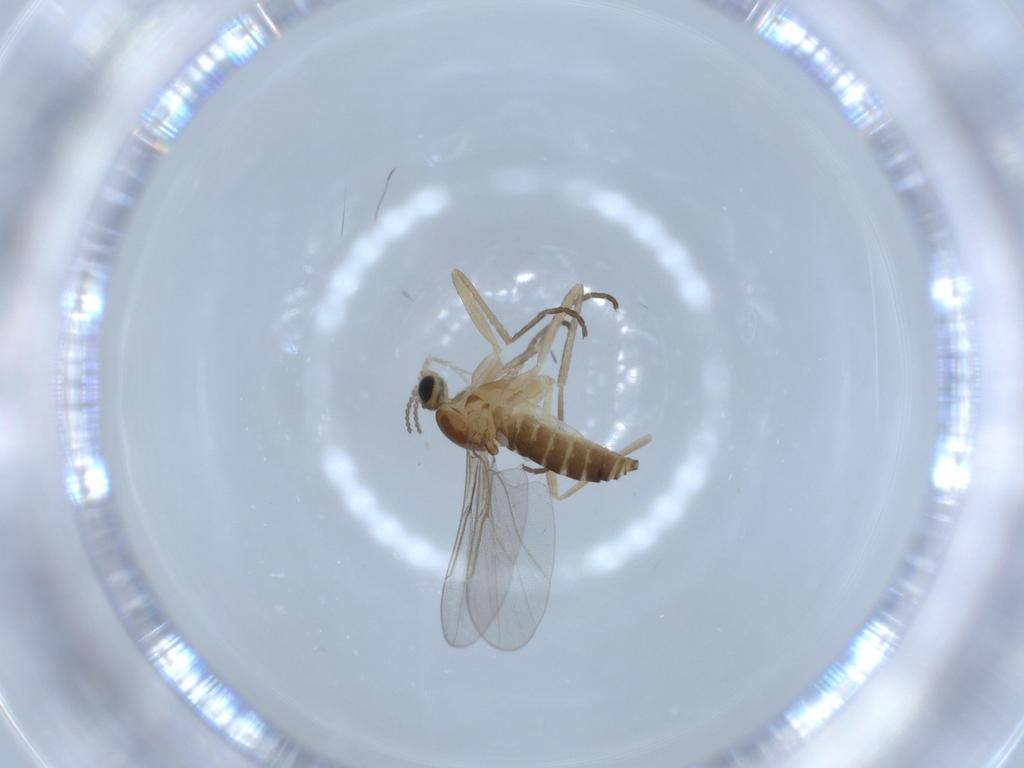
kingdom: Animalia
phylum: Arthropoda
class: Insecta
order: Diptera
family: Cecidomyiidae
